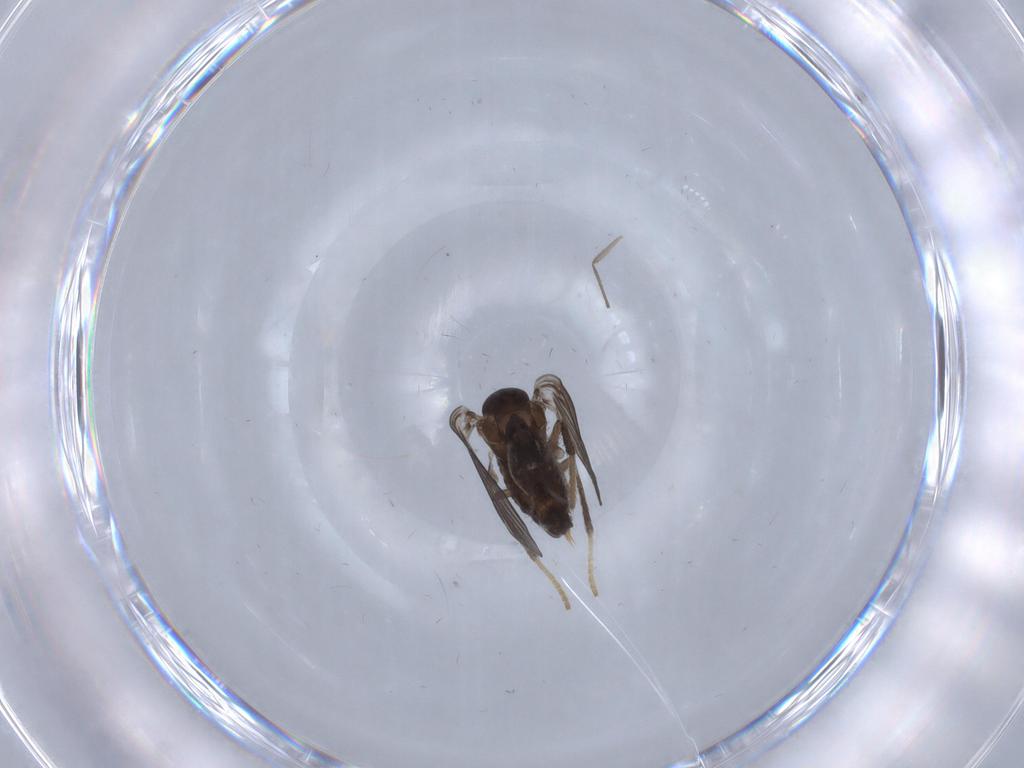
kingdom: Animalia
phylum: Arthropoda
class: Insecta
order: Diptera
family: Psychodidae
